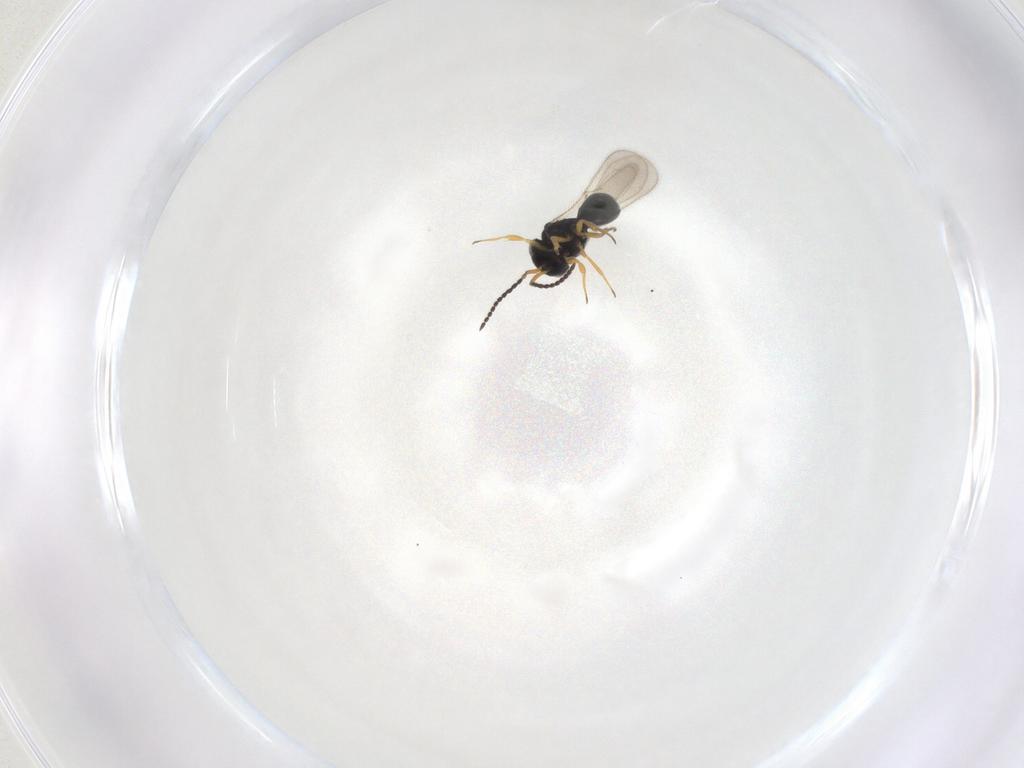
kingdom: Animalia
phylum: Arthropoda
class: Insecta
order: Hymenoptera
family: Scelionidae
